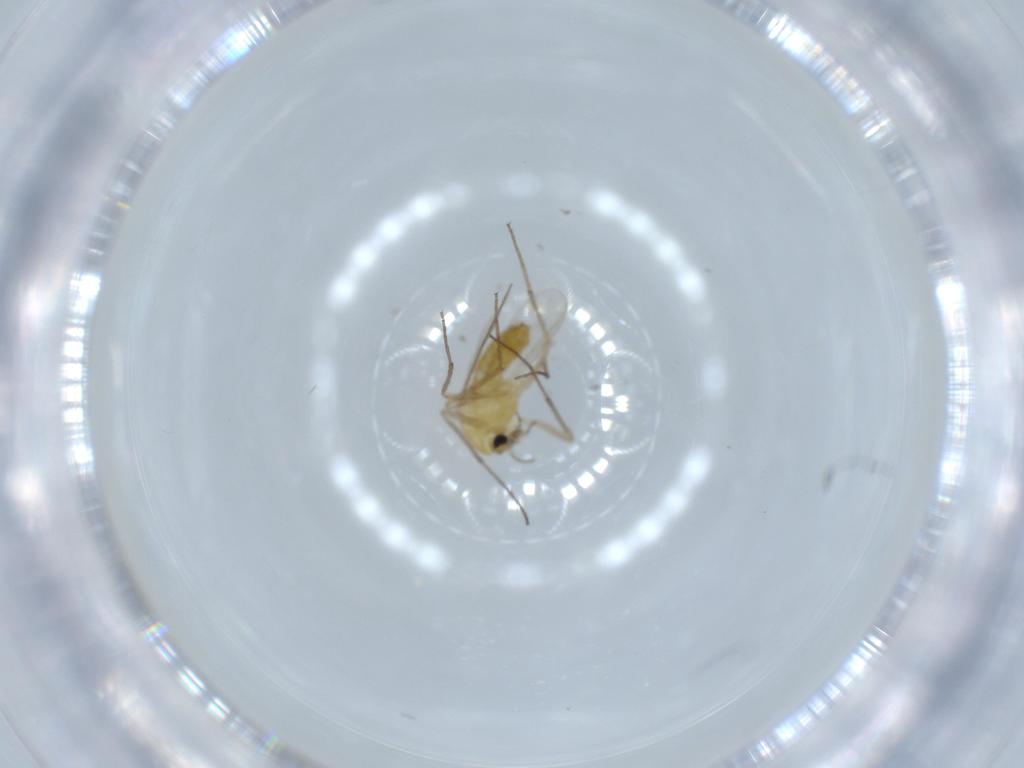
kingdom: Animalia
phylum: Arthropoda
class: Insecta
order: Diptera
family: Chironomidae
